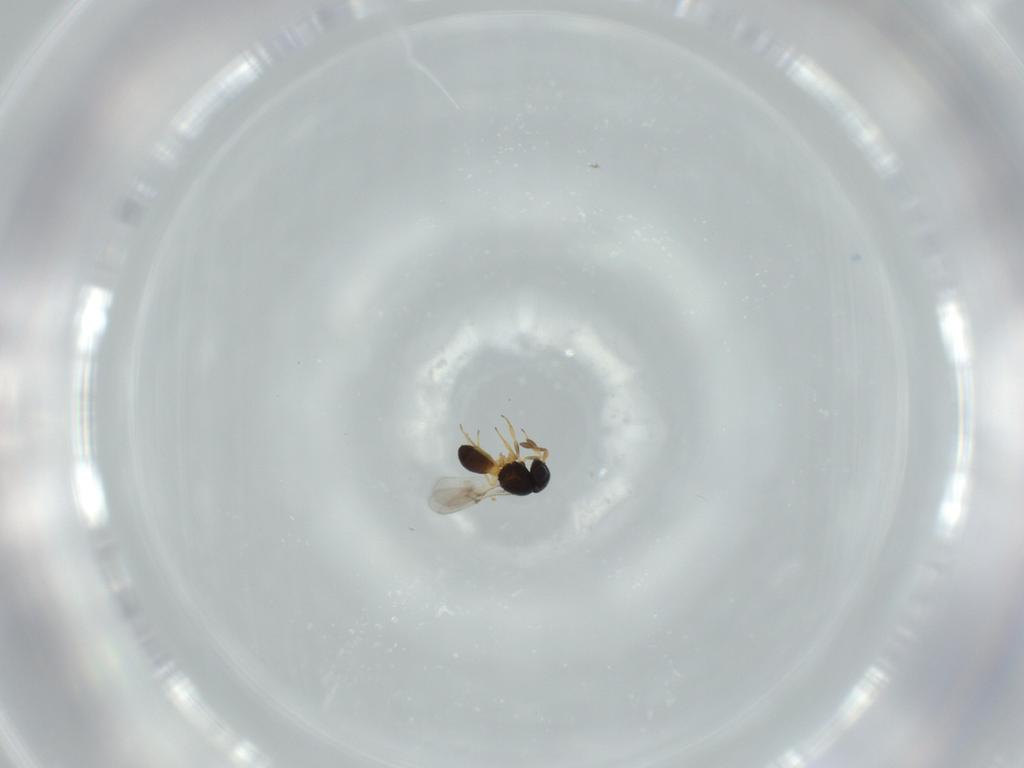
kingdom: Animalia
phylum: Arthropoda
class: Insecta
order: Hymenoptera
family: Scelionidae
